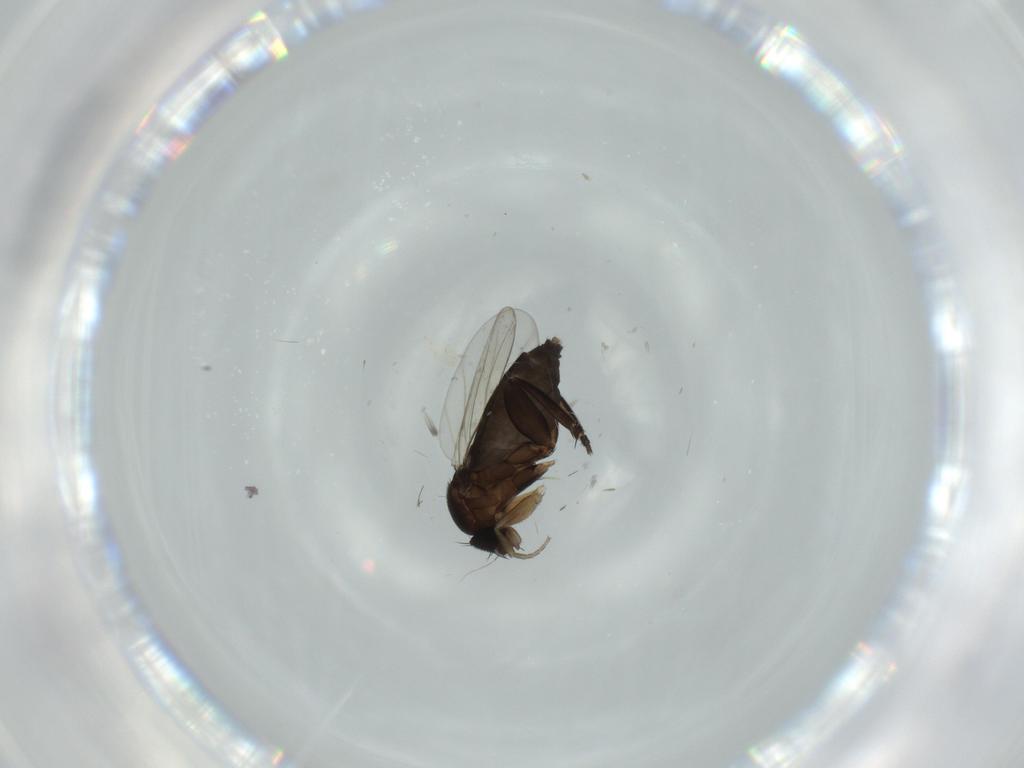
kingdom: Animalia
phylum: Arthropoda
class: Insecta
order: Diptera
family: Phoridae
